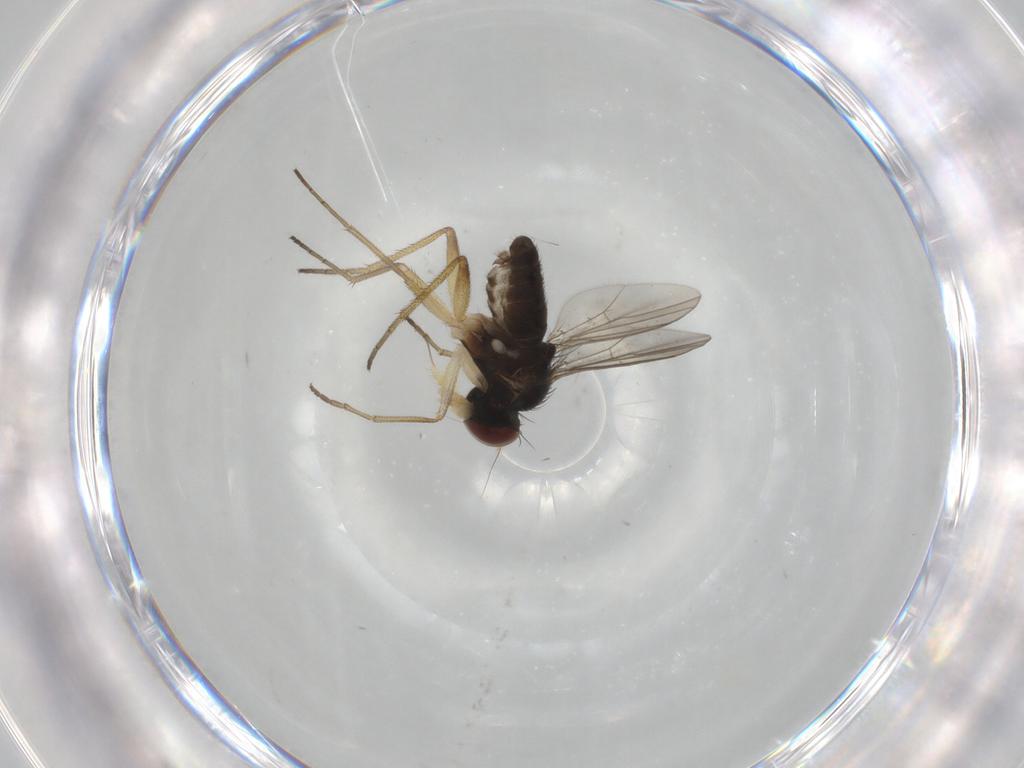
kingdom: Animalia
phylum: Arthropoda
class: Insecta
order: Diptera
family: Dolichopodidae
